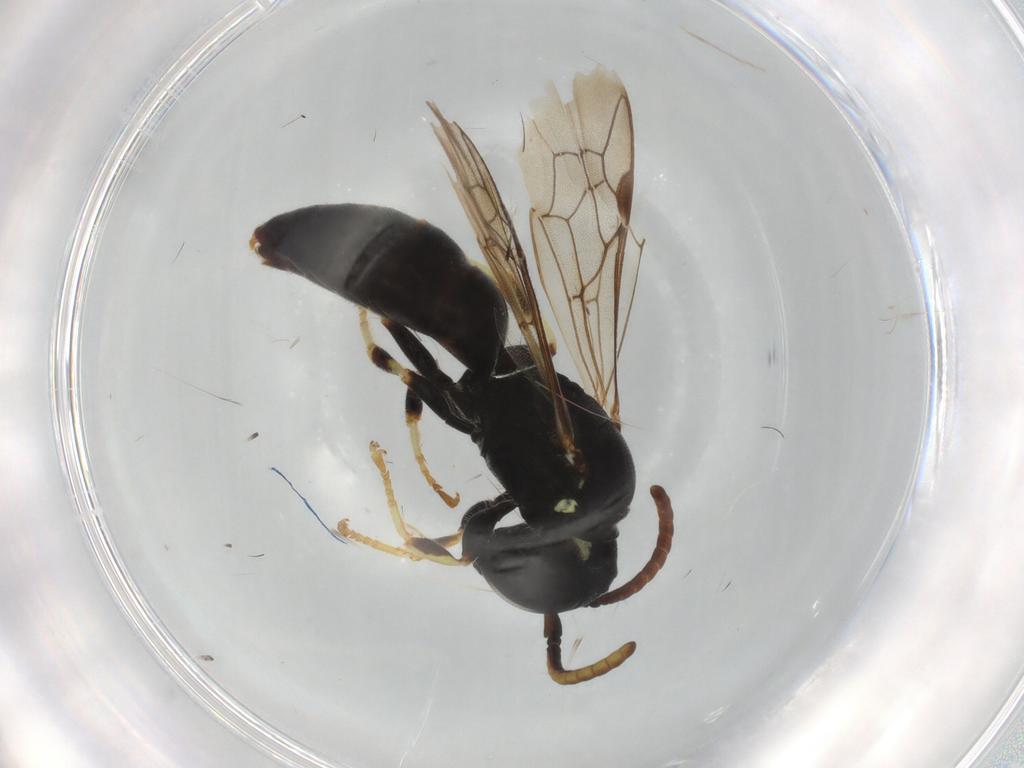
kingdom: Animalia
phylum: Arthropoda
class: Insecta
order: Hymenoptera
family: Colletidae
